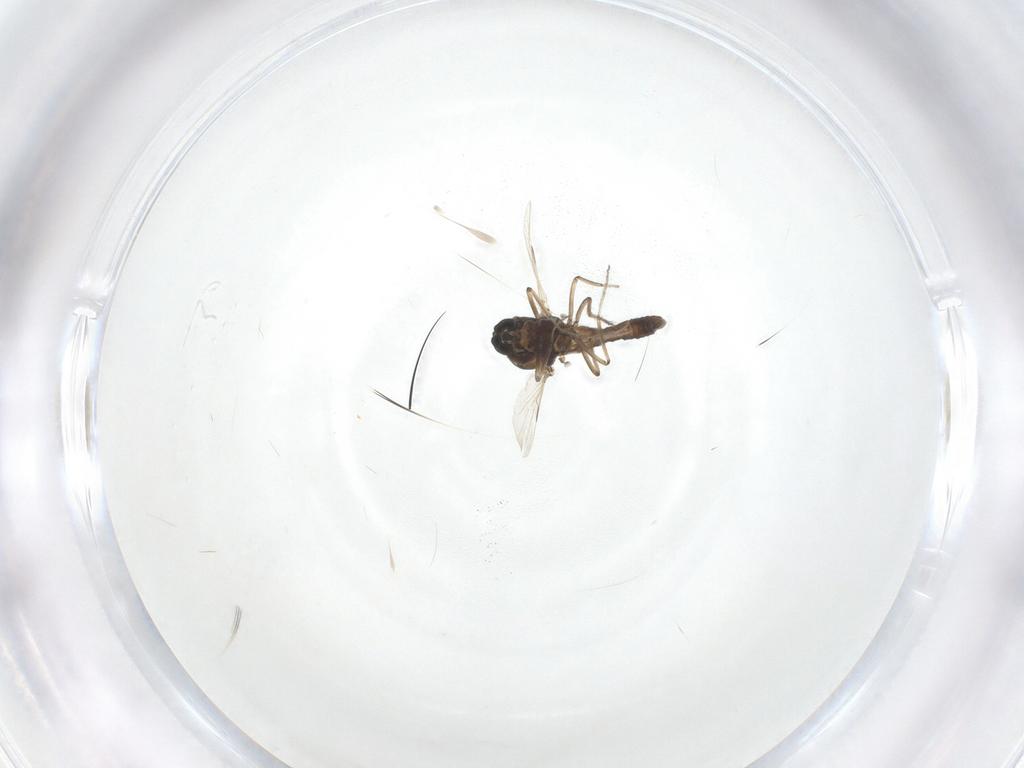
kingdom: Animalia
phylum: Arthropoda
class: Insecta
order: Diptera
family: Ceratopogonidae
